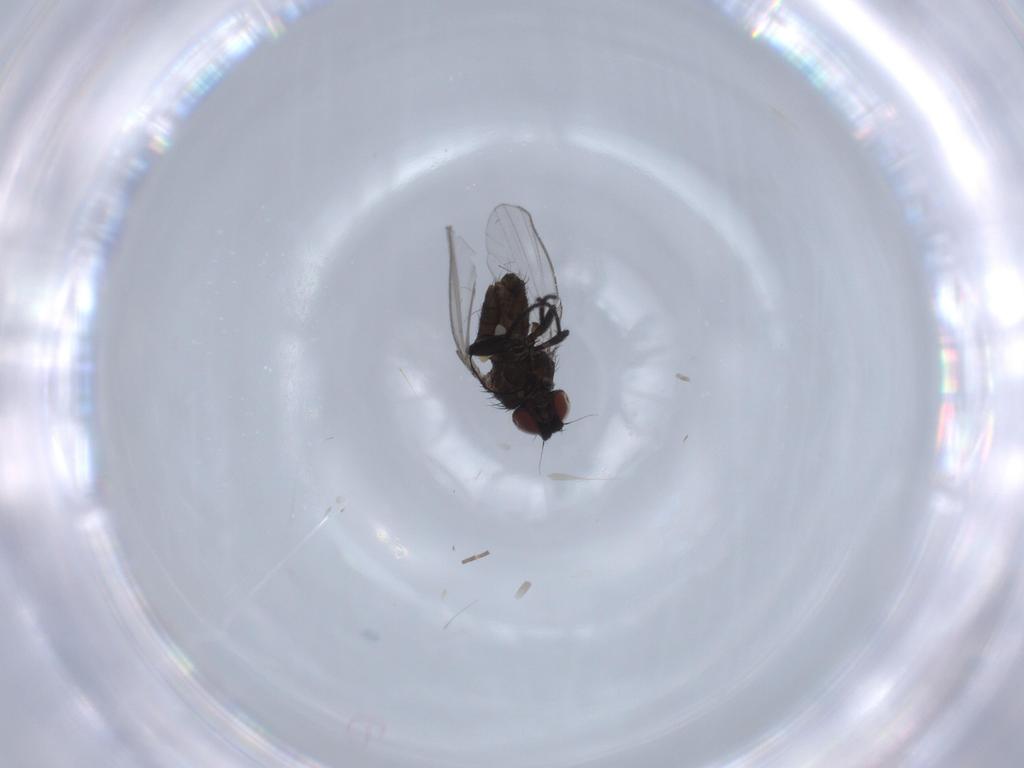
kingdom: Animalia
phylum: Arthropoda
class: Insecta
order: Diptera
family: Milichiidae
